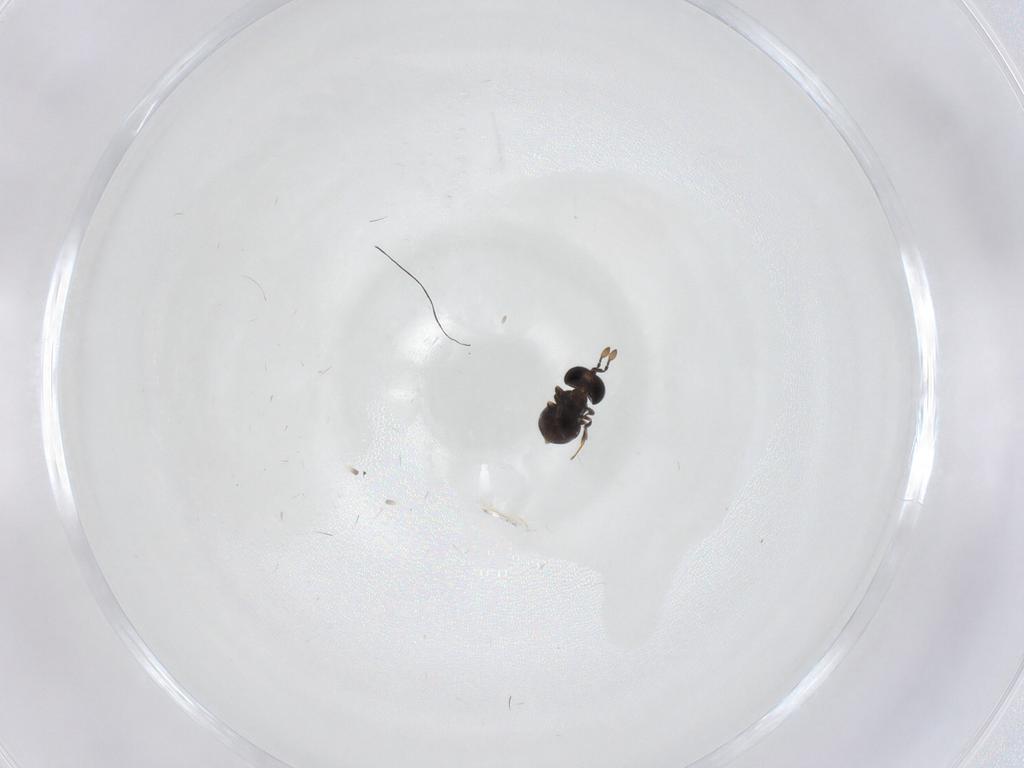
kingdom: Animalia
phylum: Arthropoda
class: Insecta
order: Hymenoptera
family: Scelionidae
